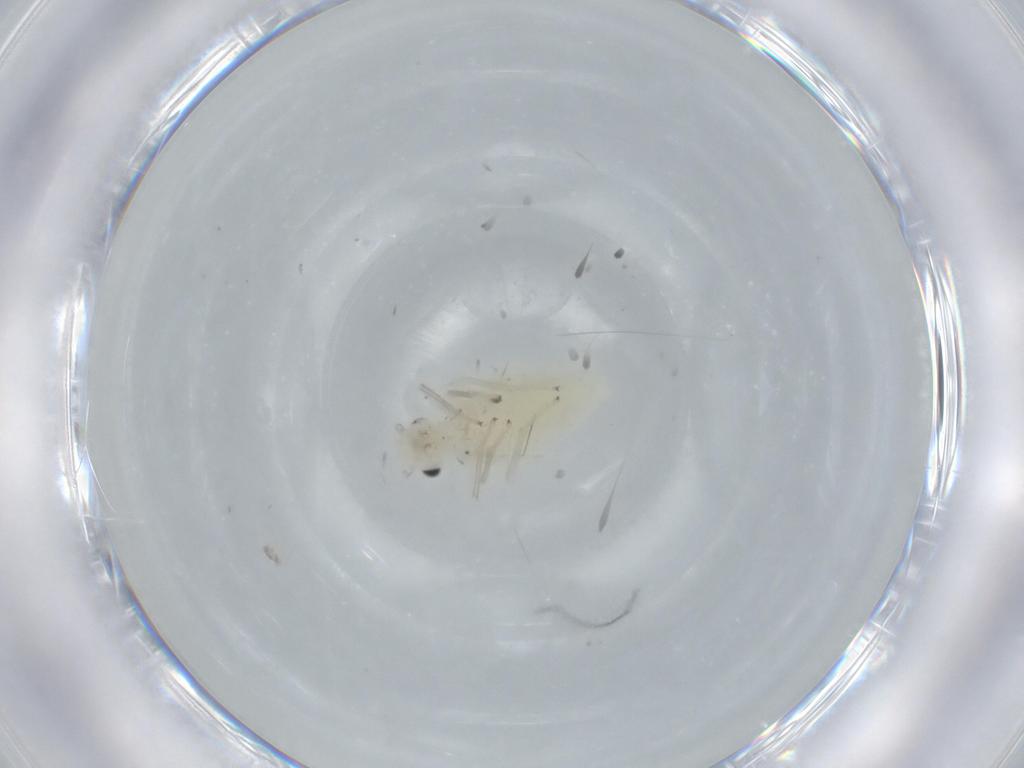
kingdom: Animalia
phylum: Arthropoda
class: Insecta
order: Psocodea
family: Caeciliusidae
